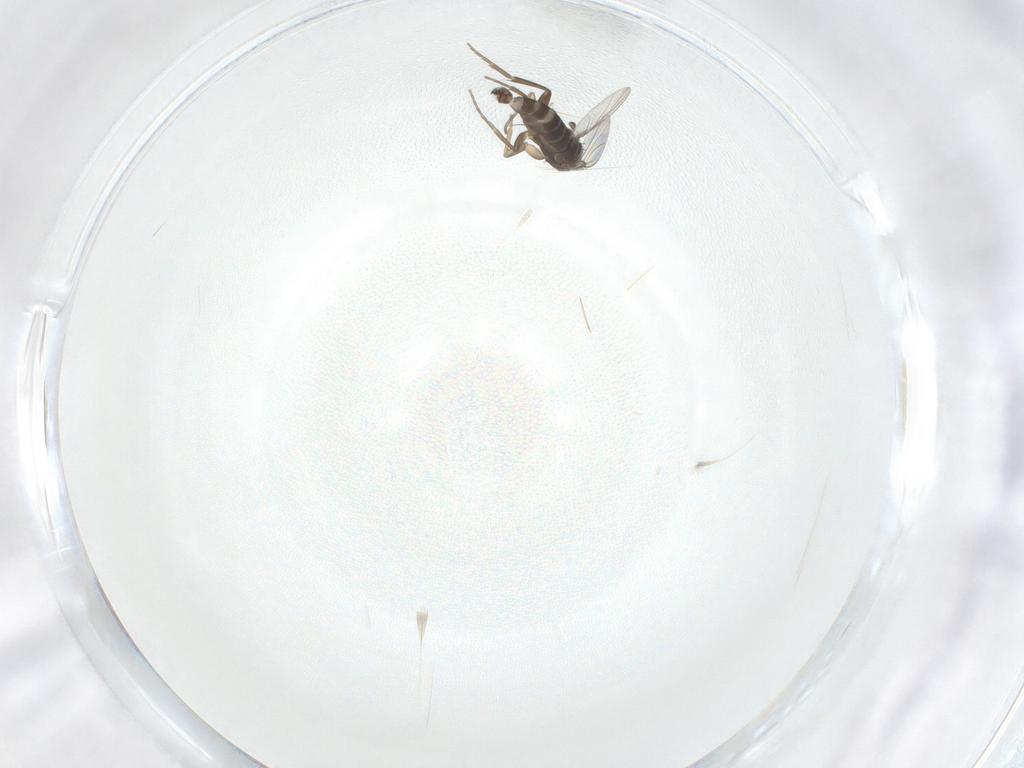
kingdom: Animalia
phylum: Arthropoda
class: Insecta
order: Diptera
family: Phoridae
